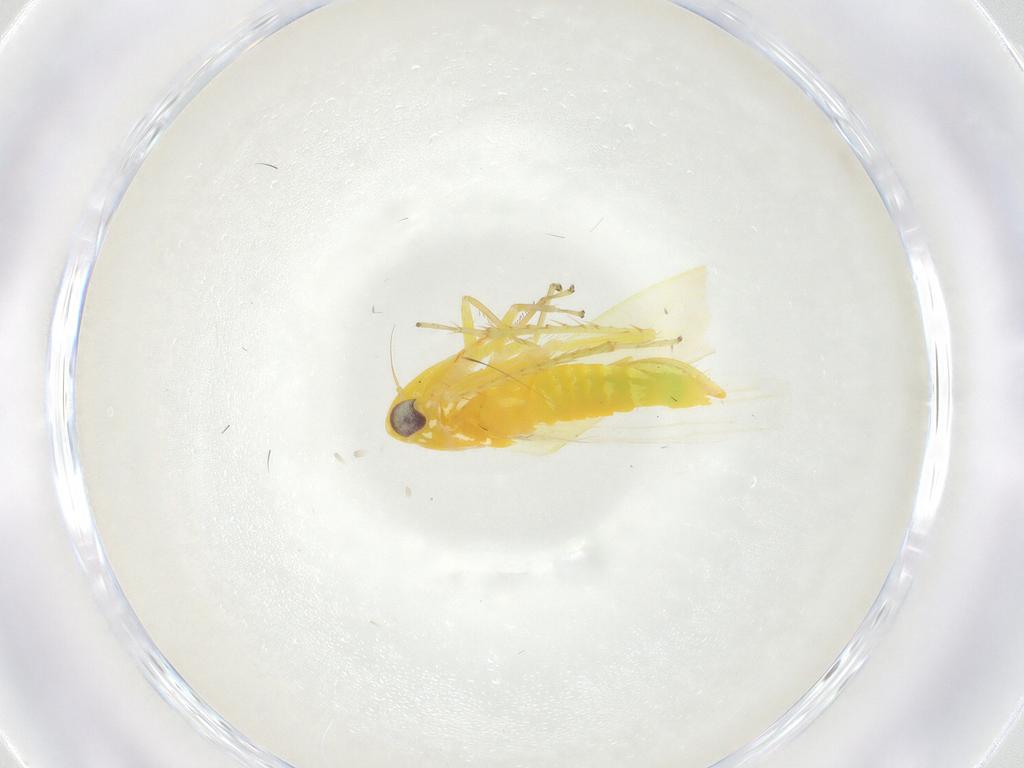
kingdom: Animalia
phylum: Arthropoda
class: Insecta
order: Hemiptera
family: Cicadellidae
